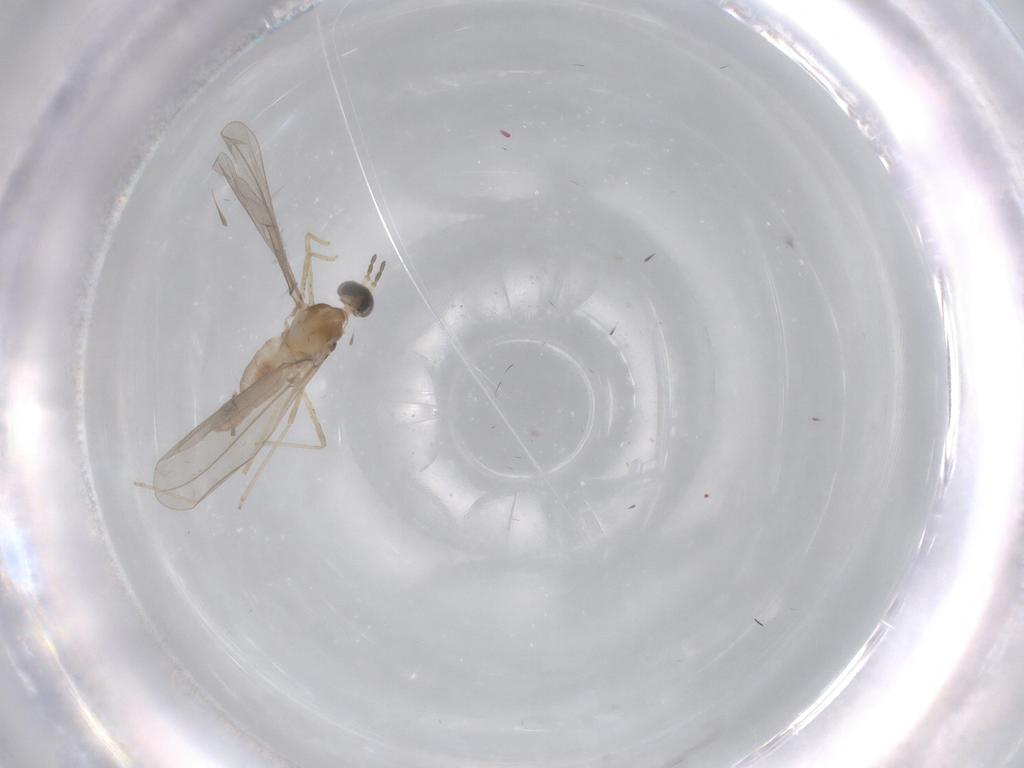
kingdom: Animalia
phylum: Arthropoda
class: Insecta
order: Diptera
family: Cecidomyiidae
